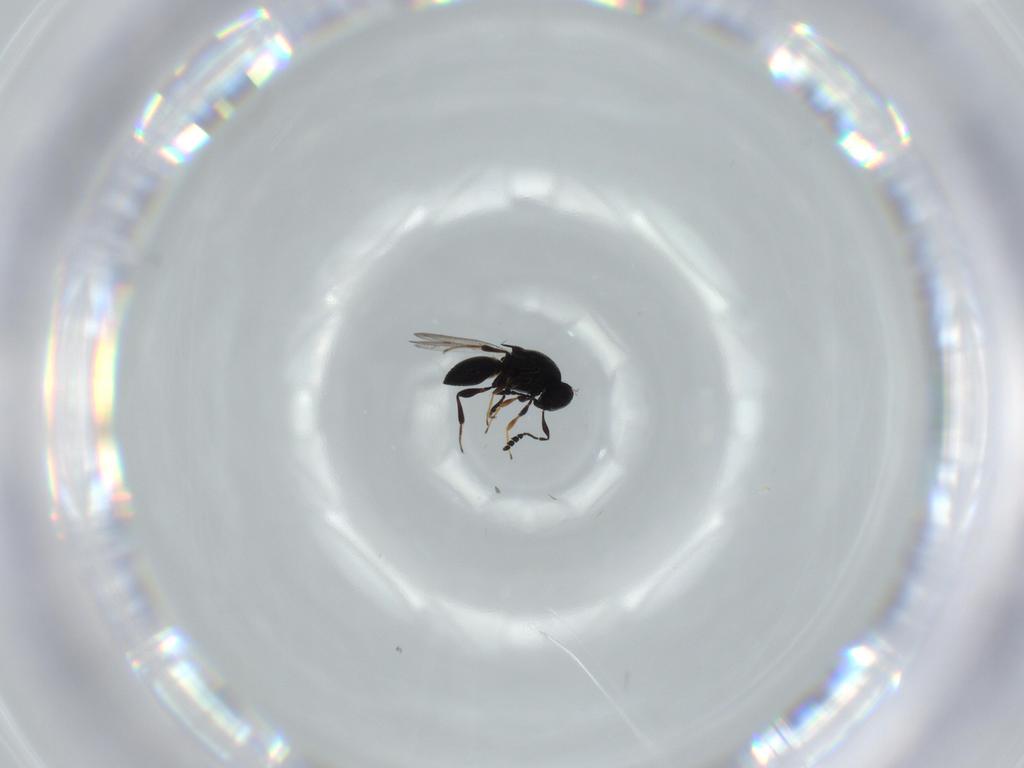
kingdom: Animalia
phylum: Arthropoda
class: Insecta
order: Hymenoptera
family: Platygastridae
